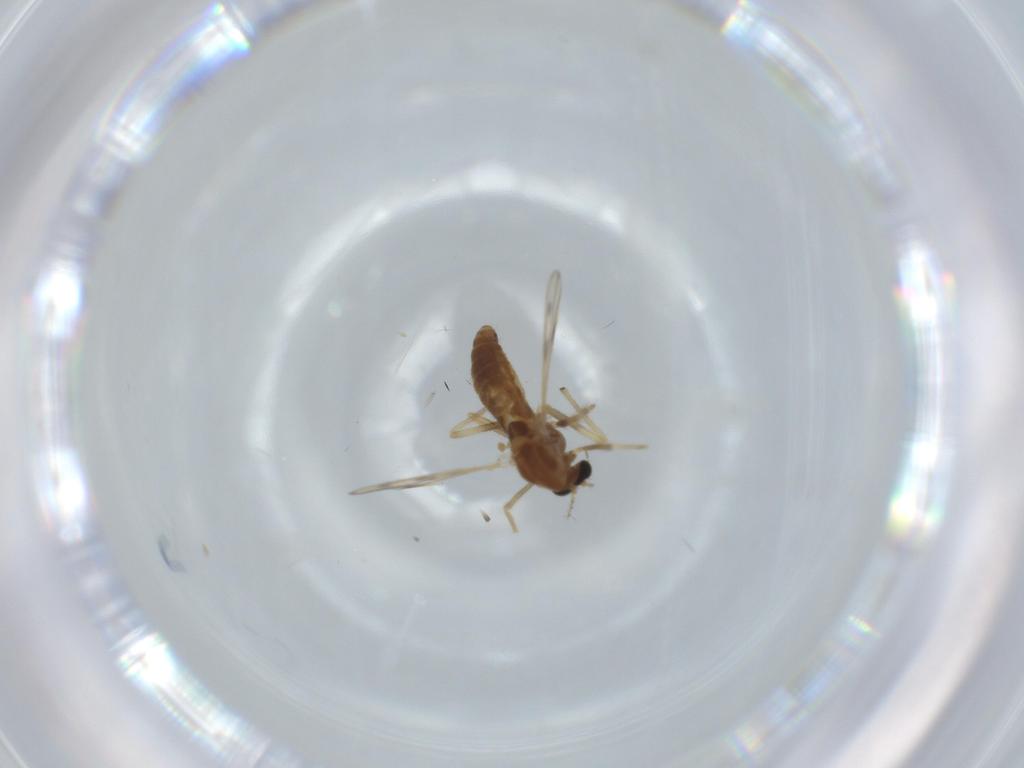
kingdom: Animalia
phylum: Arthropoda
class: Insecta
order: Diptera
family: Chironomidae
